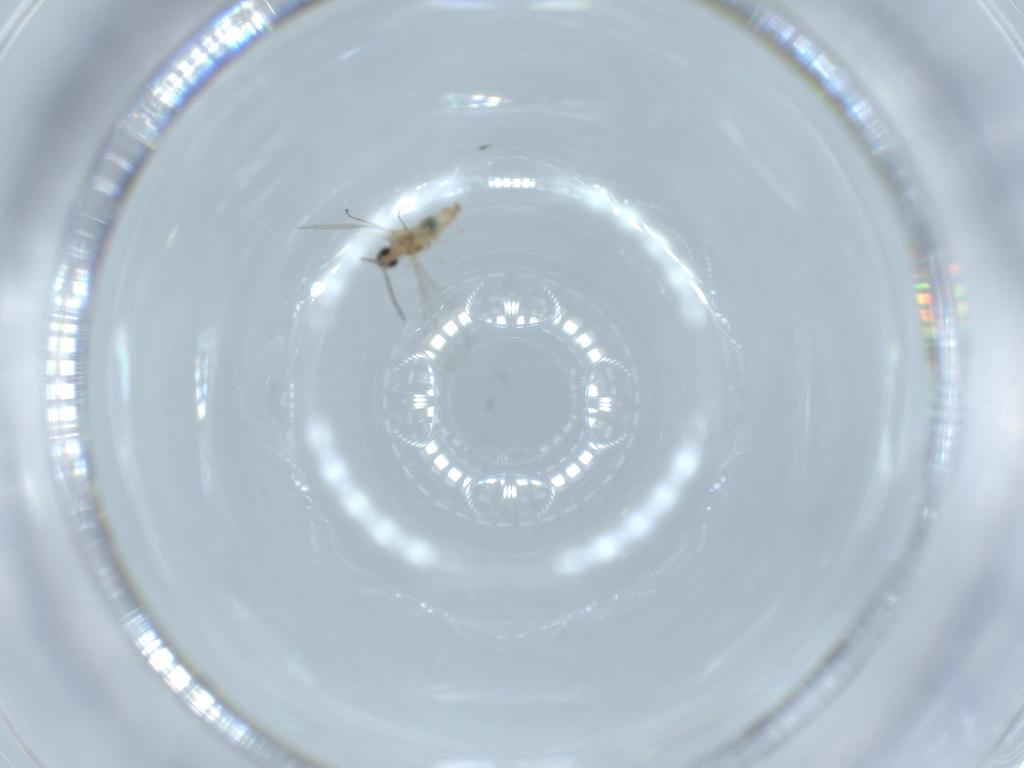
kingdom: Animalia
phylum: Arthropoda
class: Insecta
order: Diptera
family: Cecidomyiidae
